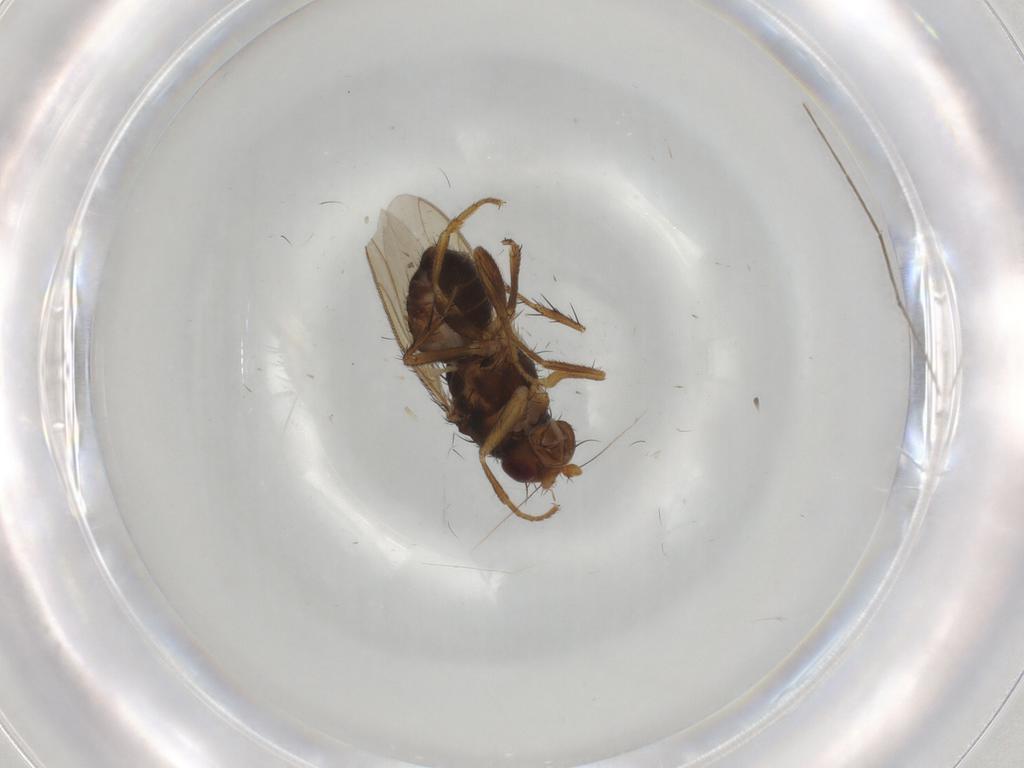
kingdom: Animalia
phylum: Arthropoda
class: Insecta
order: Diptera
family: Sphaeroceridae
